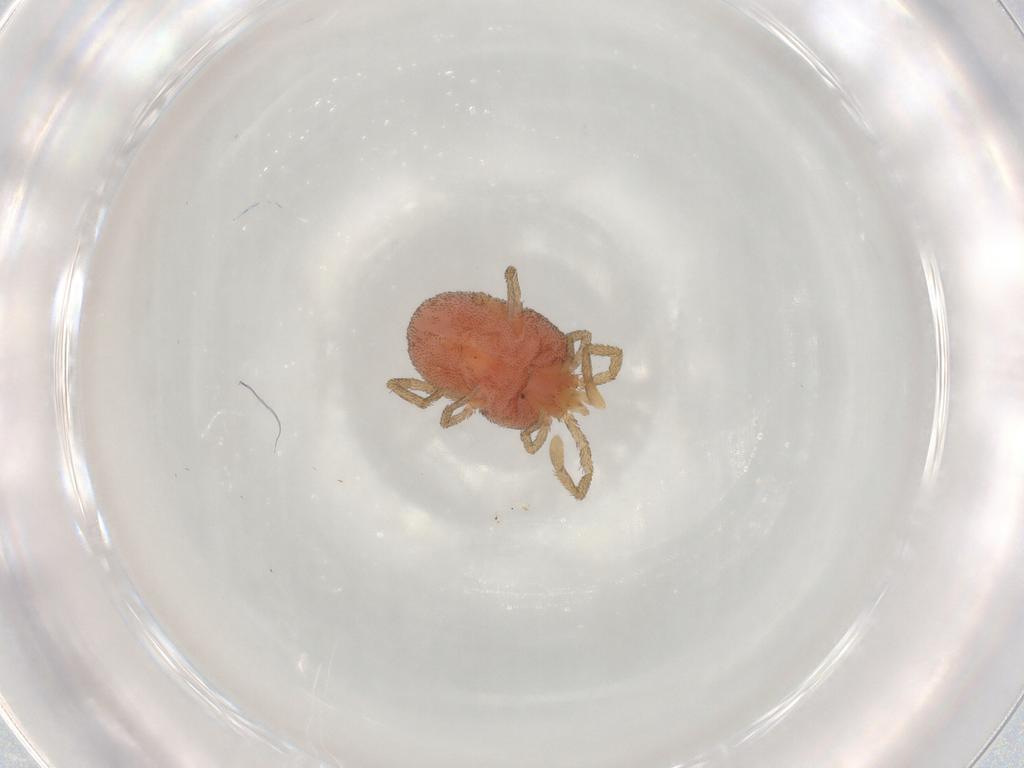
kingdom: Animalia
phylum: Arthropoda
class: Arachnida
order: Trombidiformes
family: Erythraeidae
